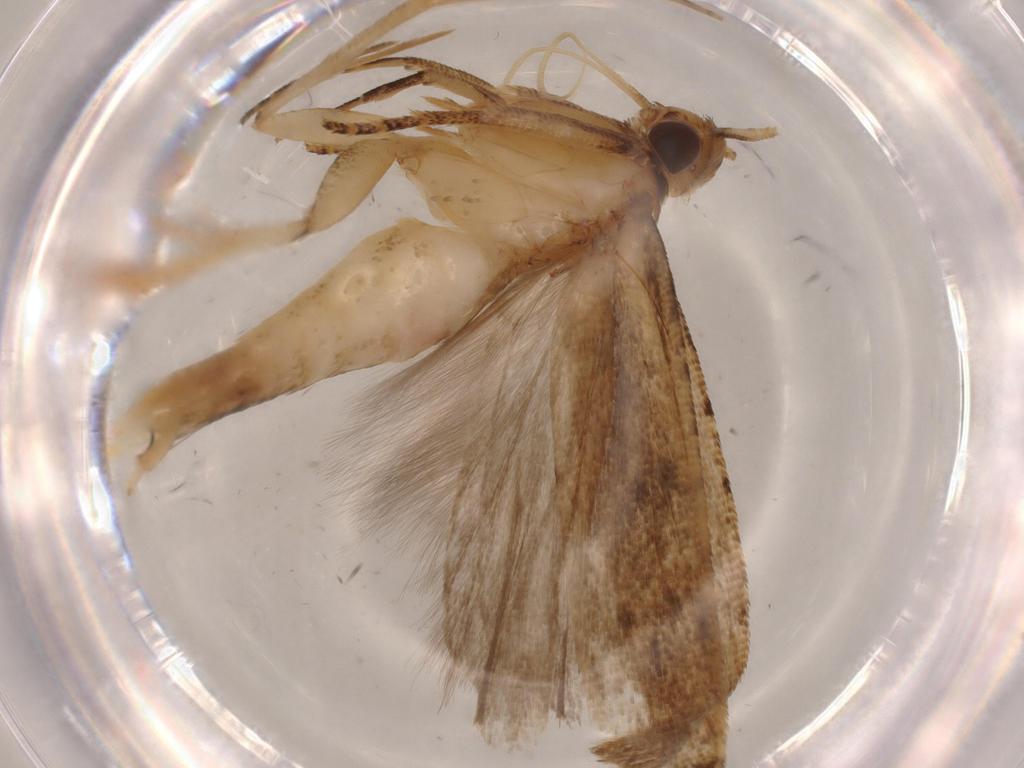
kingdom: Animalia
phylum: Arthropoda
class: Insecta
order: Lepidoptera
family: Gelechiidae
